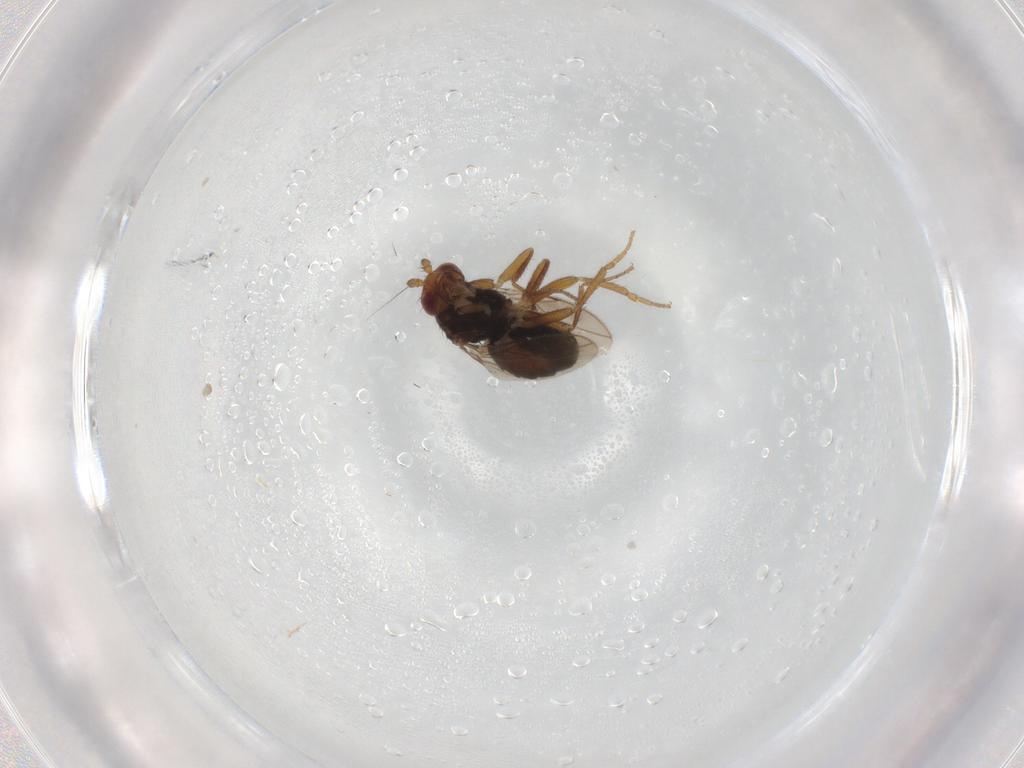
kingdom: Animalia
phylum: Arthropoda
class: Insecta
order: Diptera
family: Sphaeroceridae
